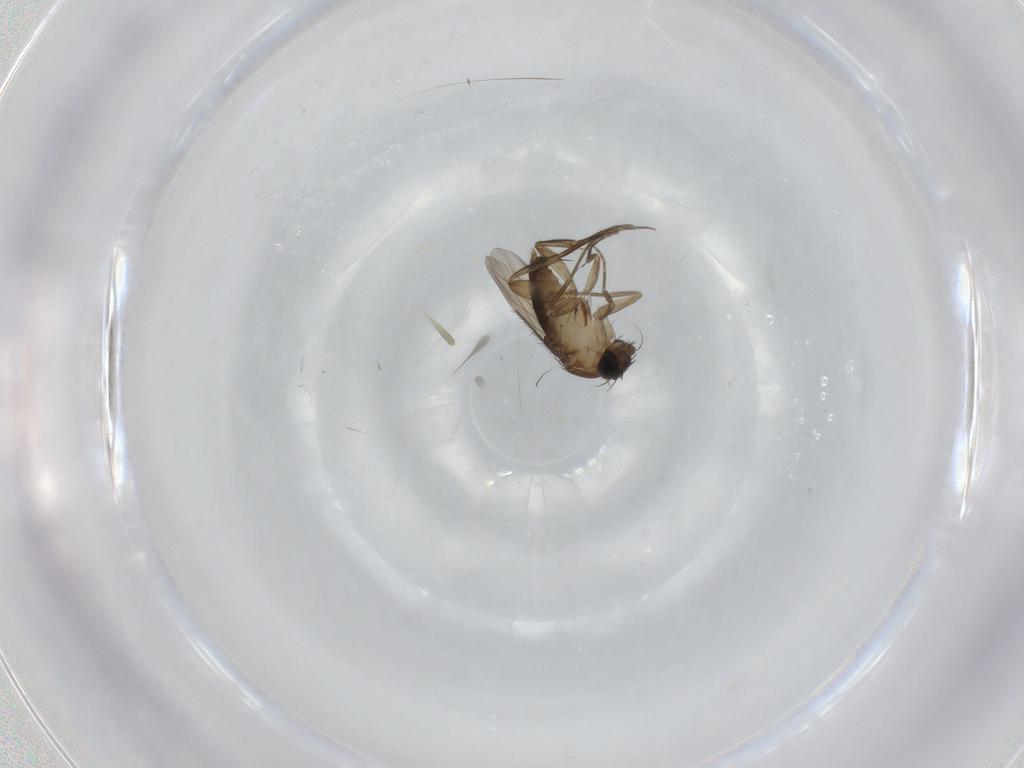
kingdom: Animalia
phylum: Arthropoda
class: Insecta
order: Diptera
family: Phoridae
